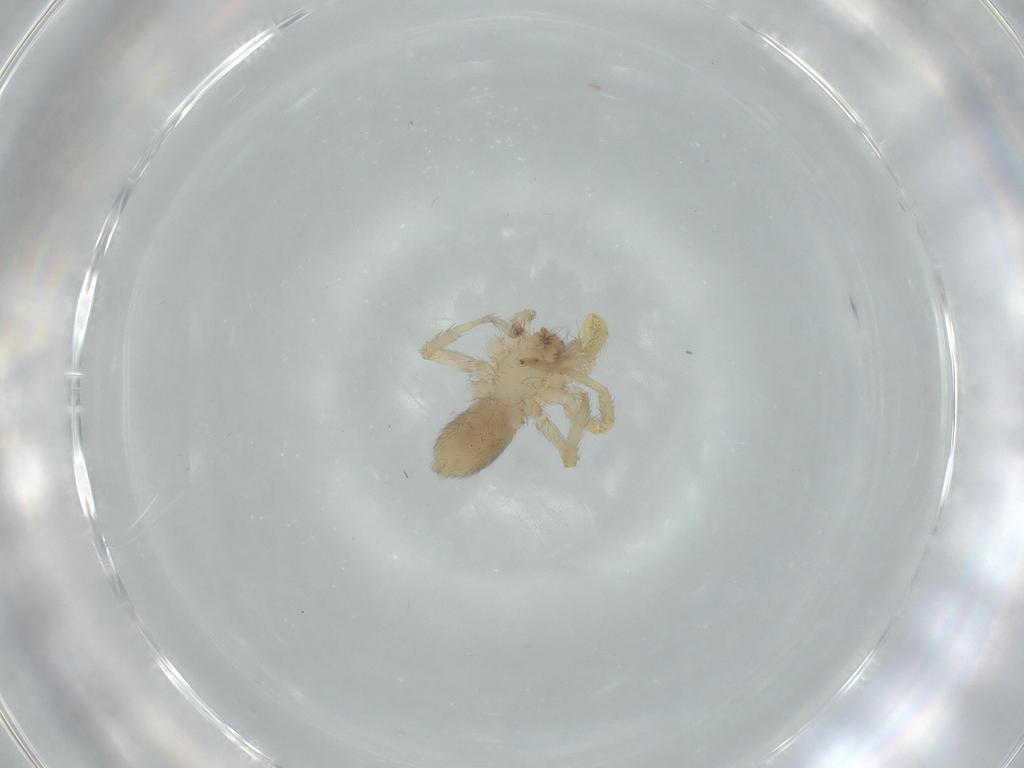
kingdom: Animalia
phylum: Arthropoda
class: Arachnida
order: Araneae
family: Oonopidae
